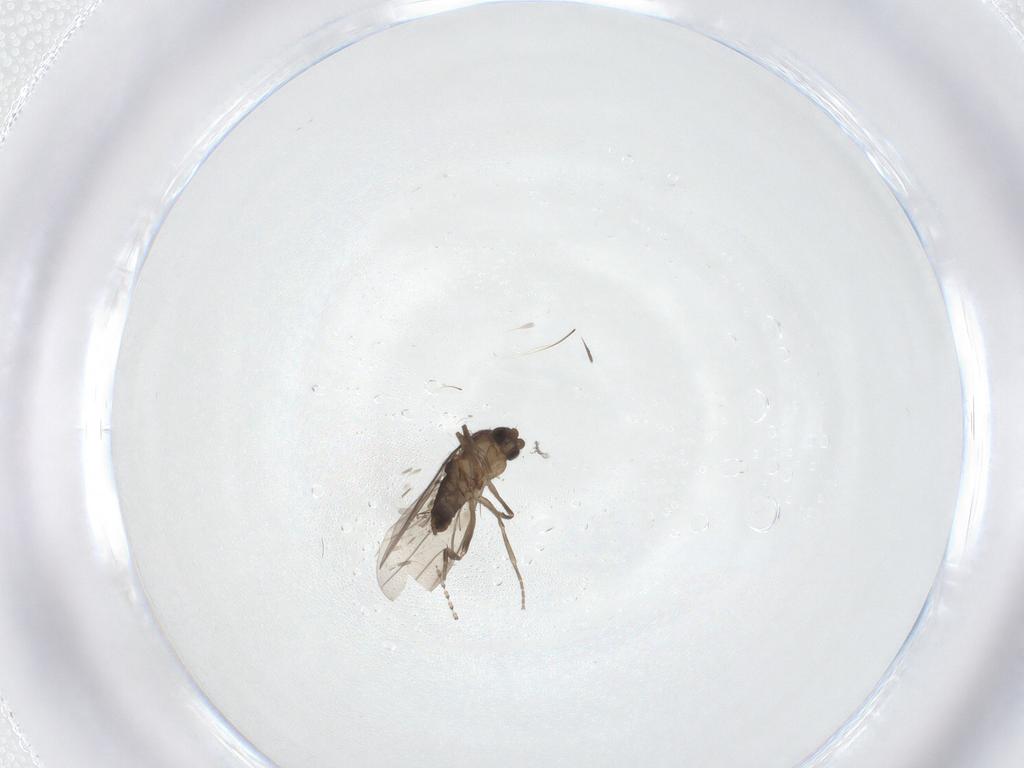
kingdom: Animalia
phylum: Arthropoda
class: Insecta
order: Diptera
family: Phoridae
